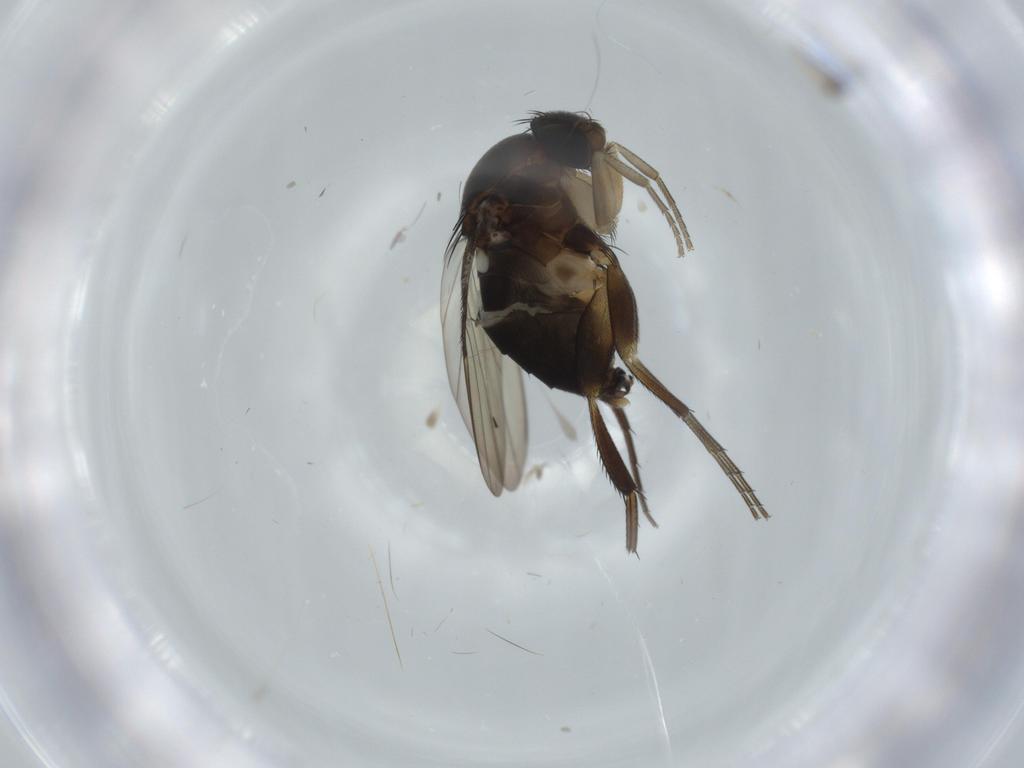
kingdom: Animalia
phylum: Arthropoda
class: Insecta
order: Diptera
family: Phoridae
